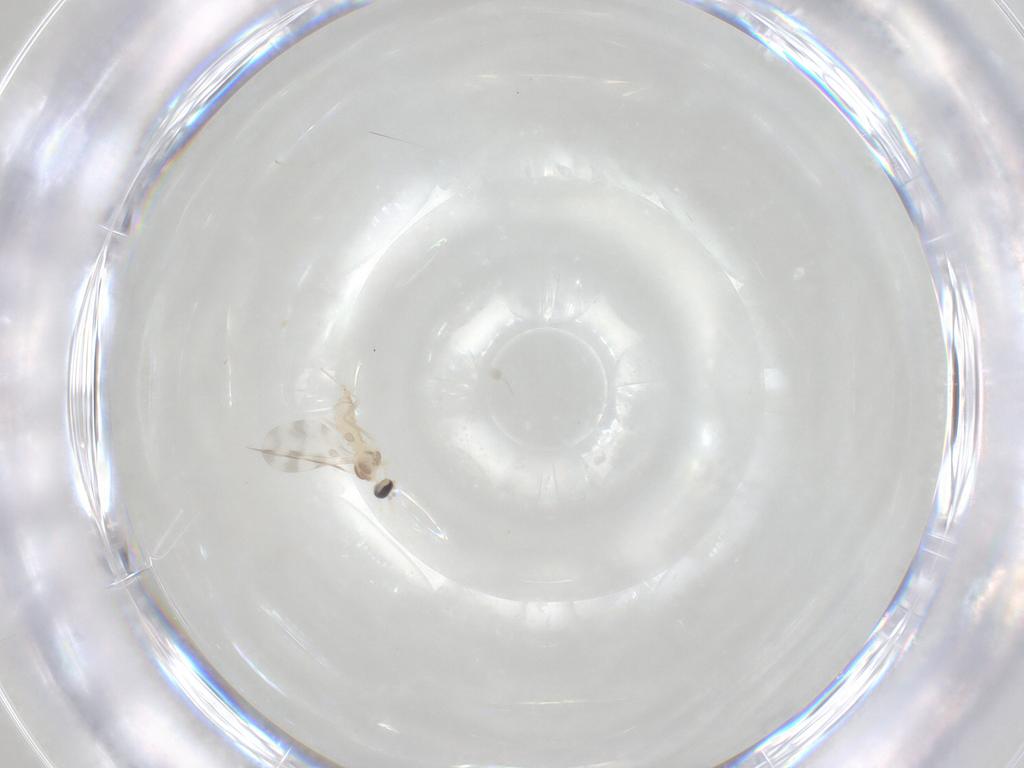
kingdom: Animalia
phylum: Arthropoda
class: Insecta
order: Diptera
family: Cecidomyiidae
